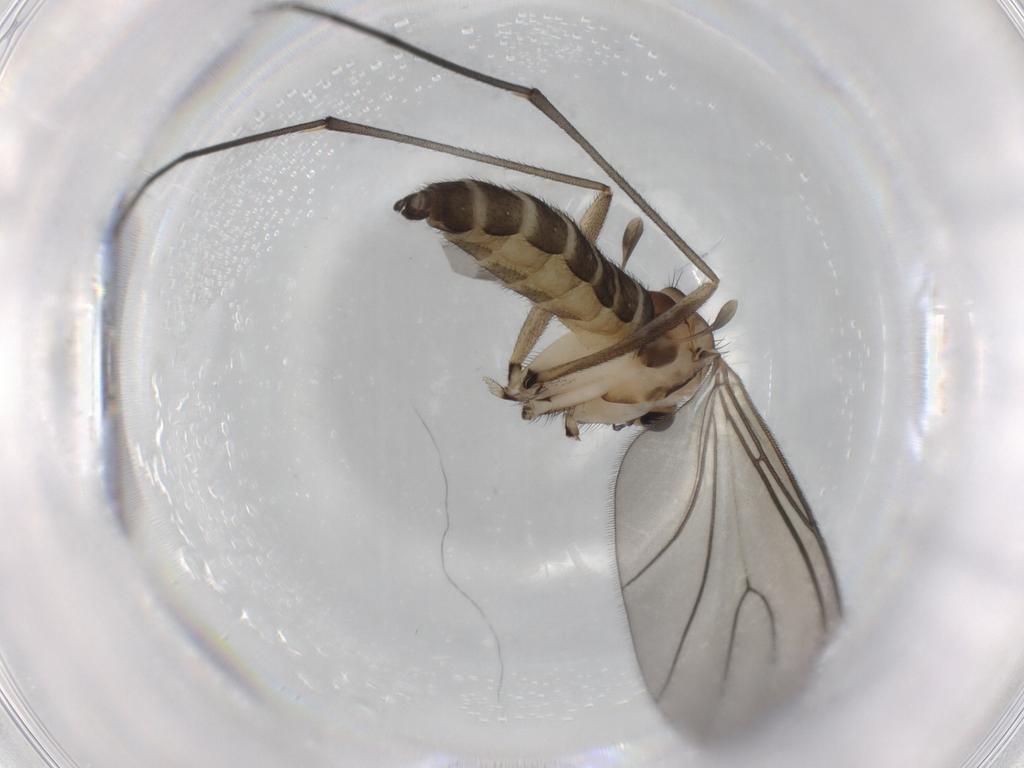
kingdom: Animalia
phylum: Arthropoda
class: Insecta
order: Diptera
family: Sciaridae
